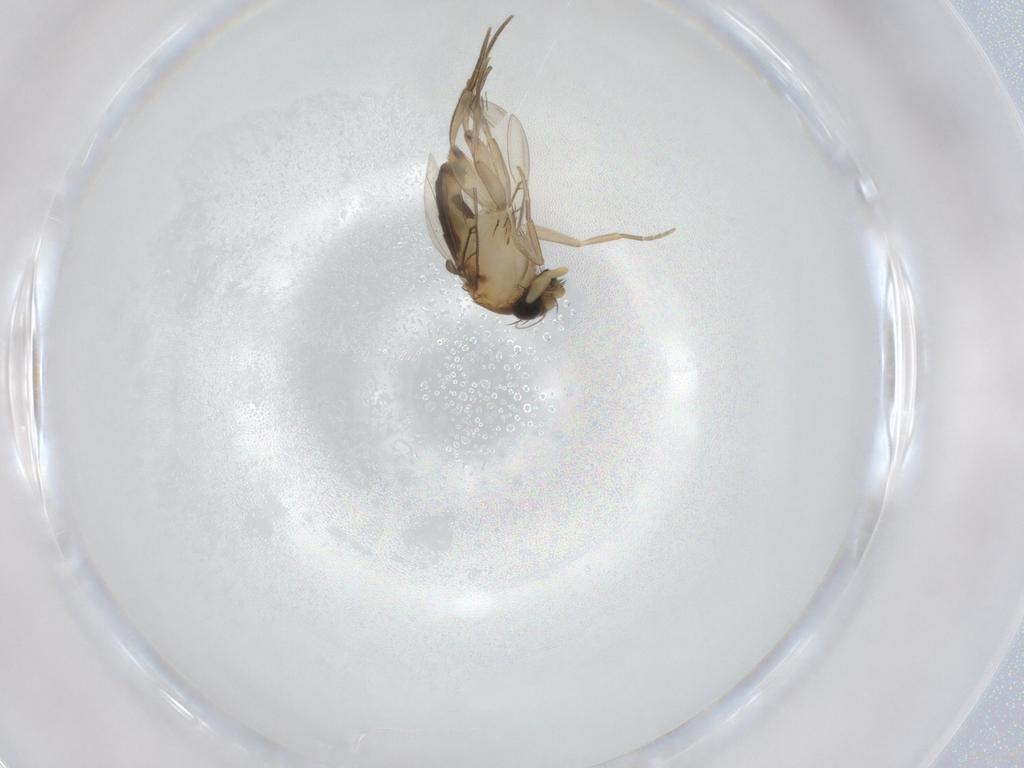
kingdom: Animalia
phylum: Arthropoda
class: Insecta
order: Diptera
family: Phoridae
